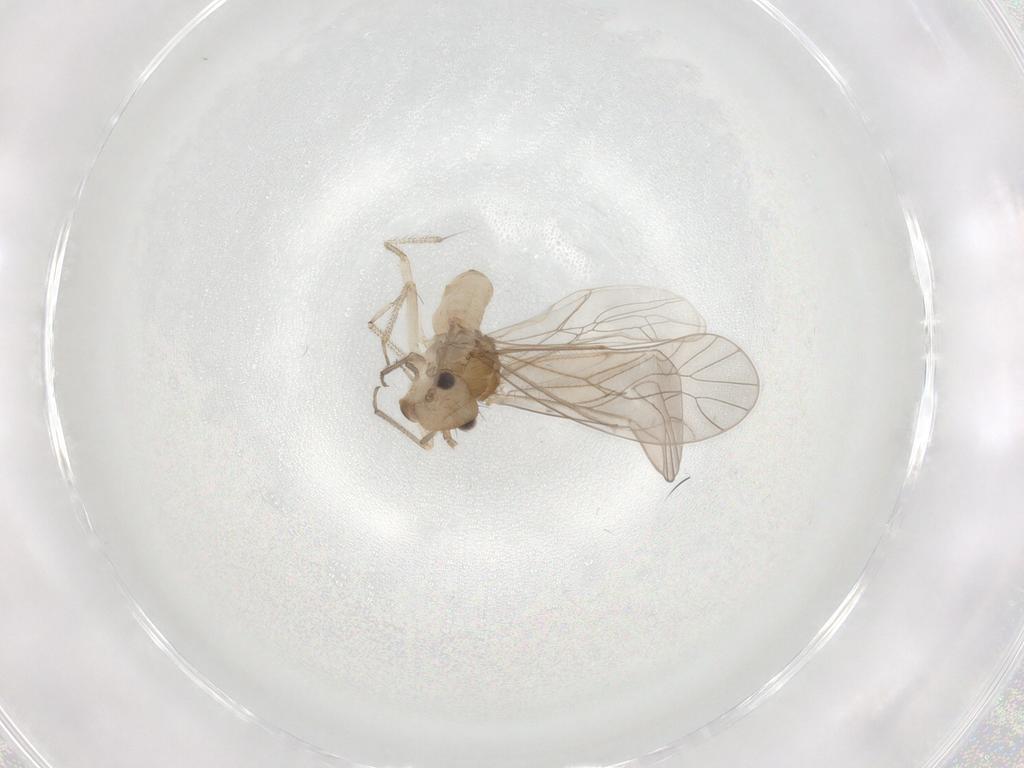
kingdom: Animalia
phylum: Arthropoda
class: Insecta
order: Psocodea
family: Caeciliusidae
